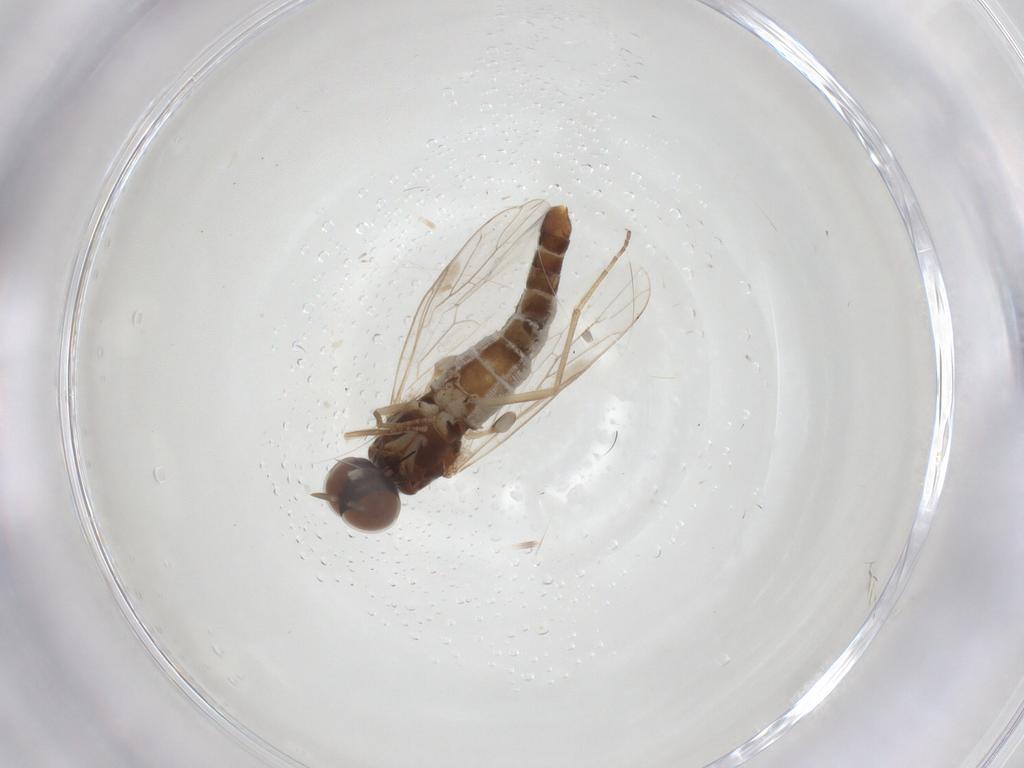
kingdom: Animalia
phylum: Arthropoda
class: Insecta
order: Diptera
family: Scenopinidae
